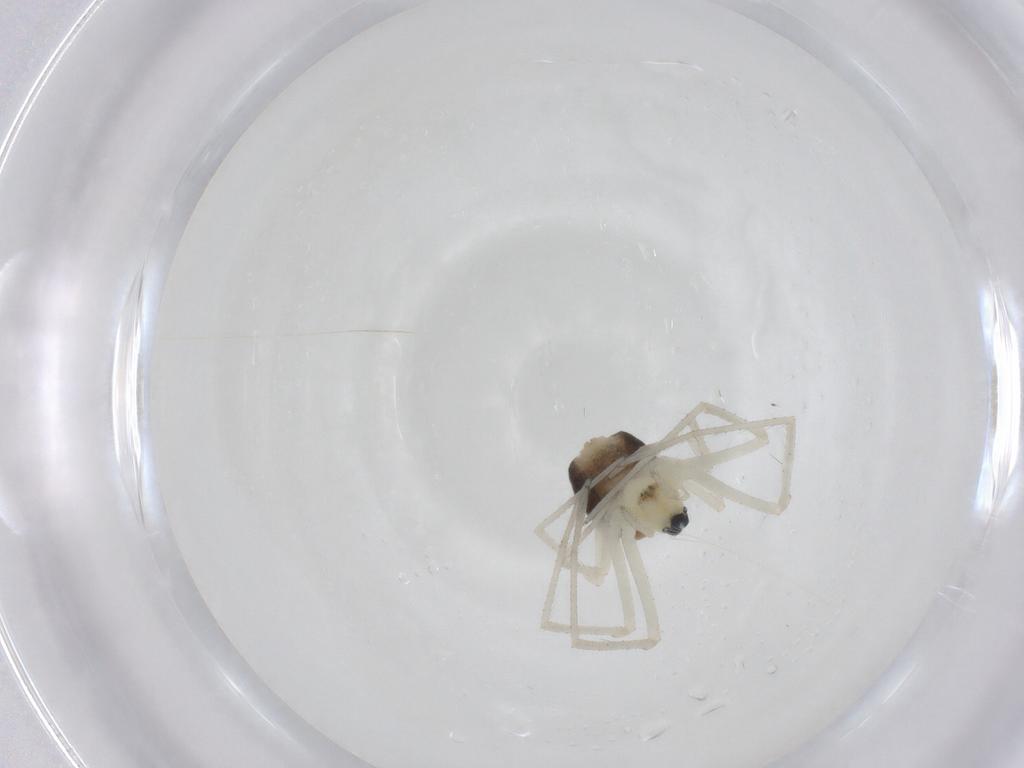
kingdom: Animalia
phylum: Arthropoda
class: Arachnida
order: Araneae
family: Linyphiidae
